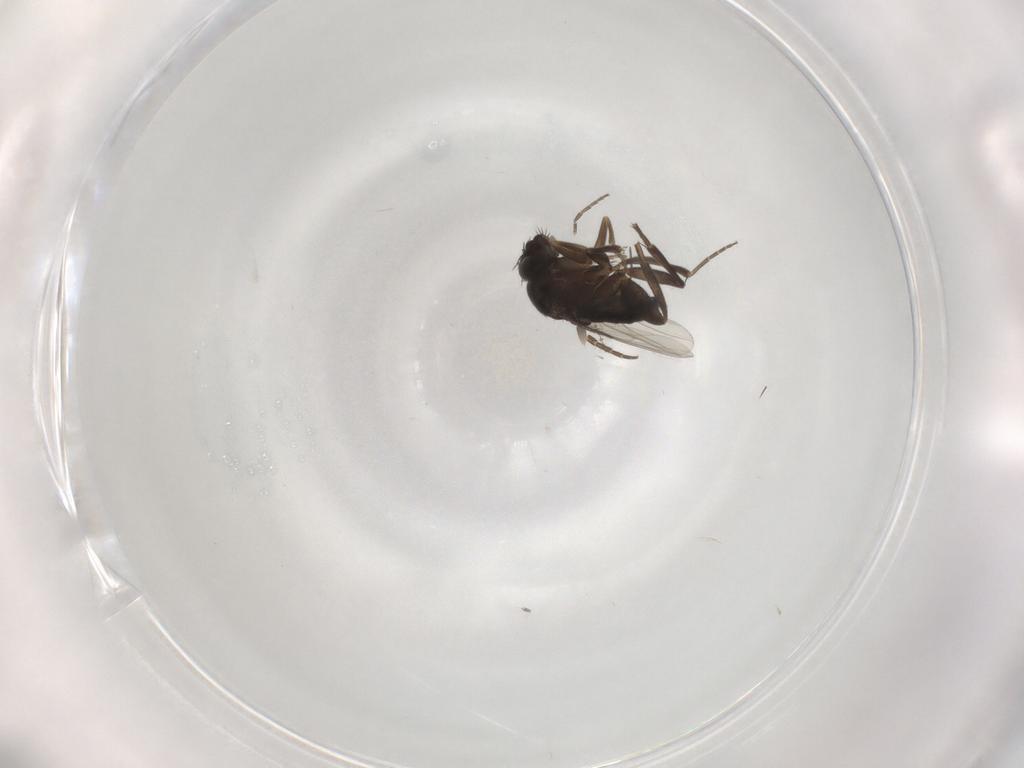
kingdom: Animalia
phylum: Arthropoda
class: Insecta
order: Diptera
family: Phoridae
